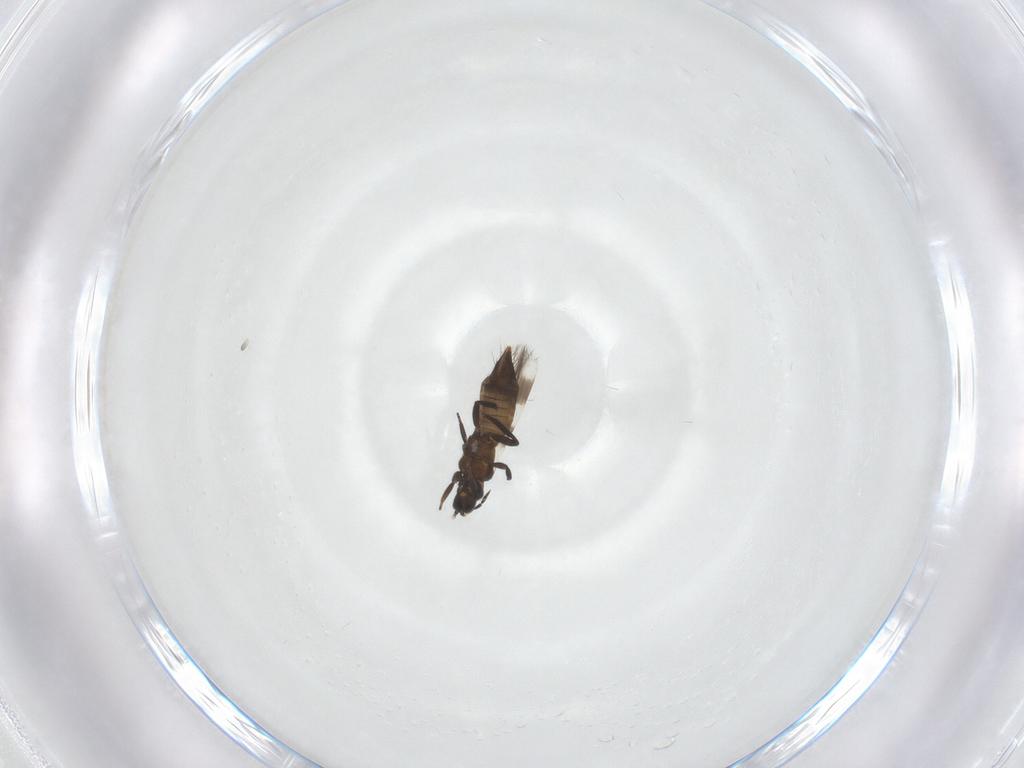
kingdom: Animalia
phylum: Arthropoda
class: Insecta
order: Thysanoptera
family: Aeolothripidae
